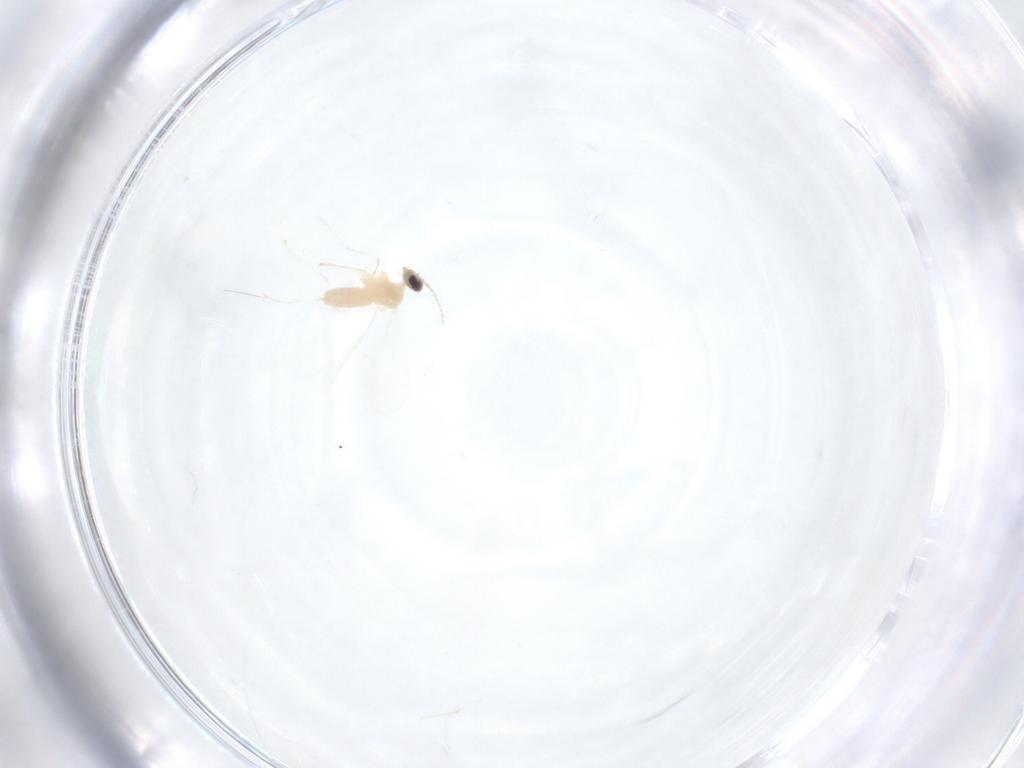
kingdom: Animalia
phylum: Arthropoda
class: Insecta
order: Diptera
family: Cecidomyiidae
